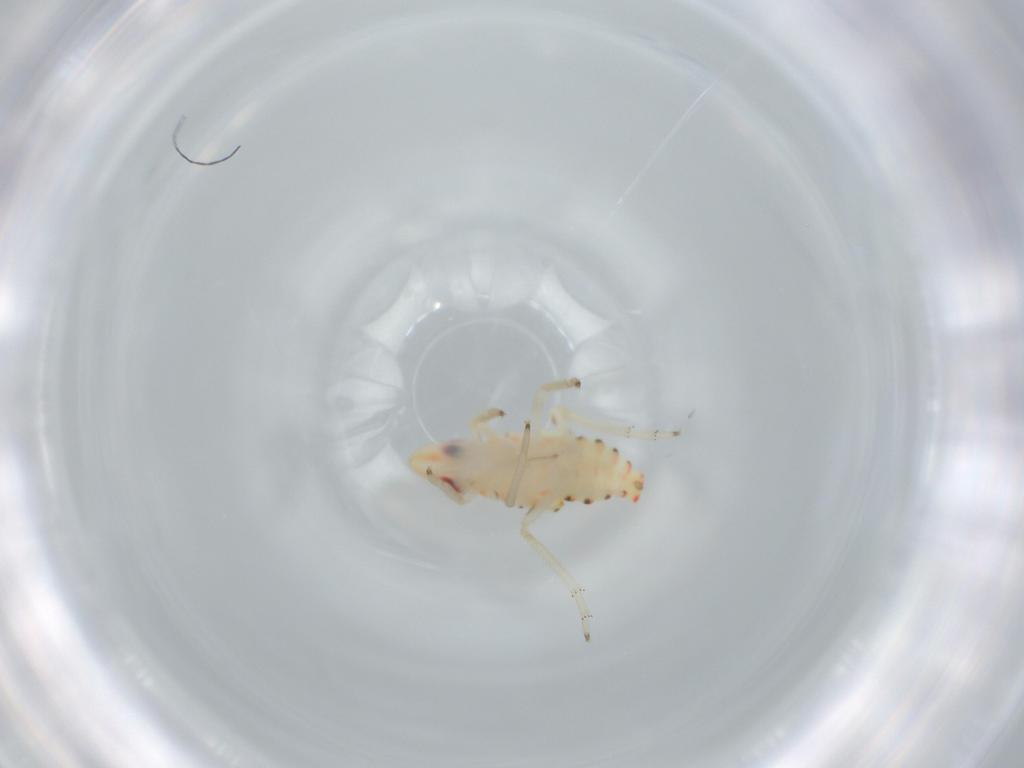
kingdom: Animalia
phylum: Arthropoda
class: Insecta
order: Hemiptera
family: Tropiduchidae
